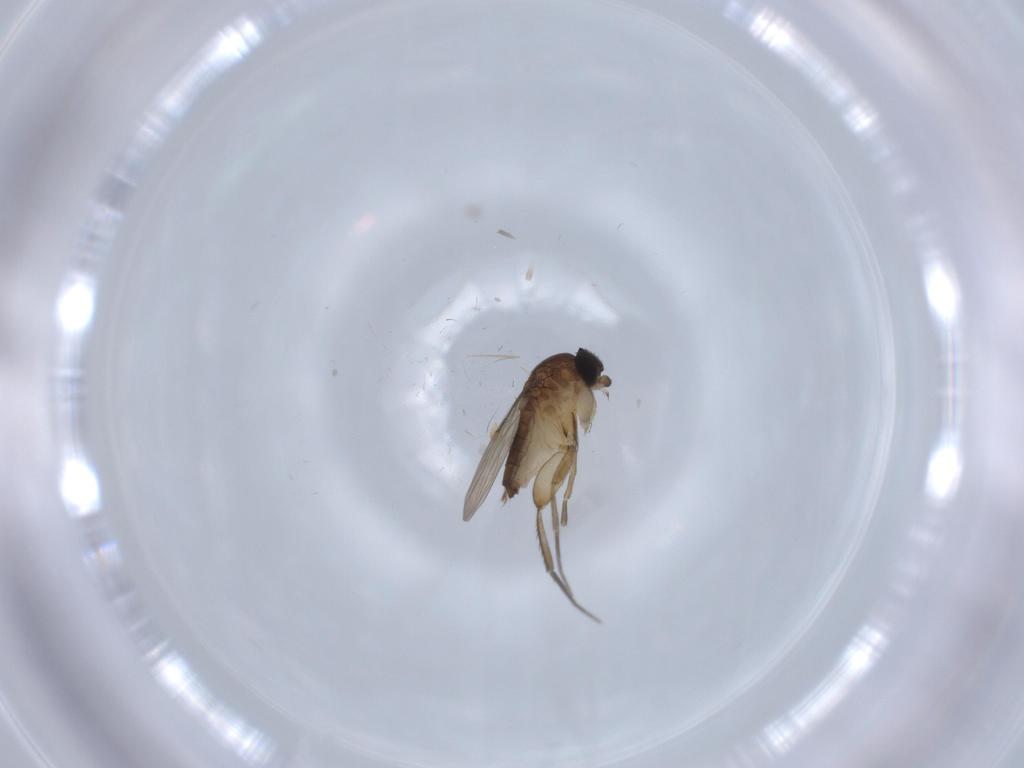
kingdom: Animalia
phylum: Arthropoda
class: Insecta
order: Diptera
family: Phoridae
